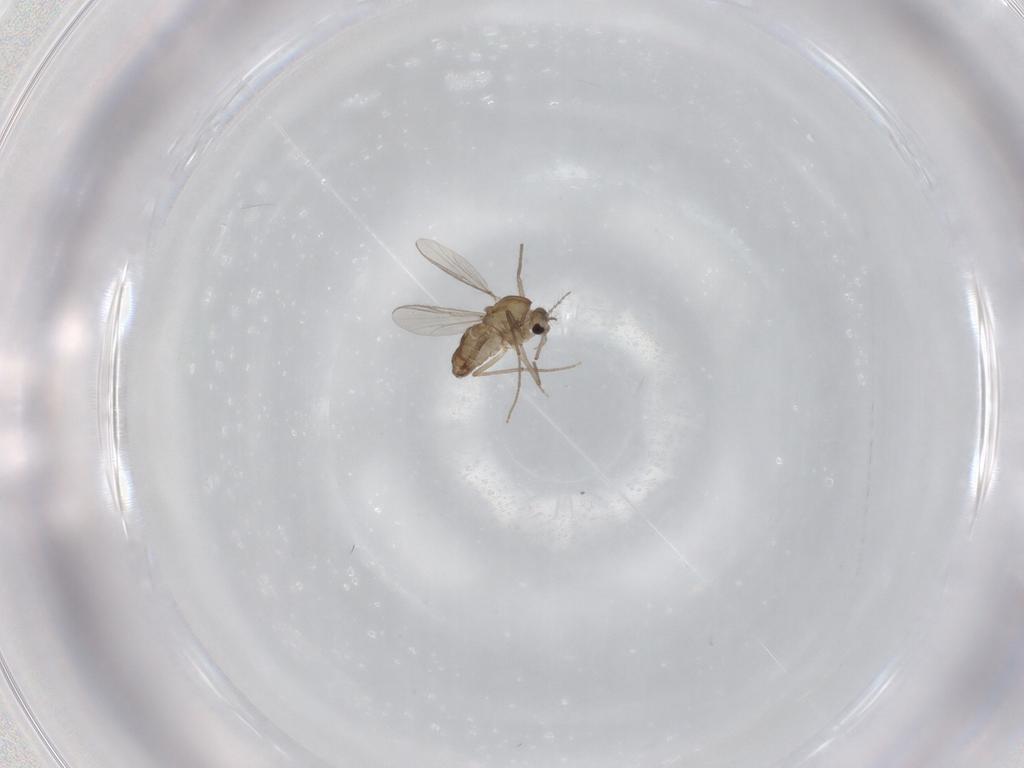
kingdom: Animalia
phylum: Arthropoda
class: Insecta
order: Diptera
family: Chironomidae
